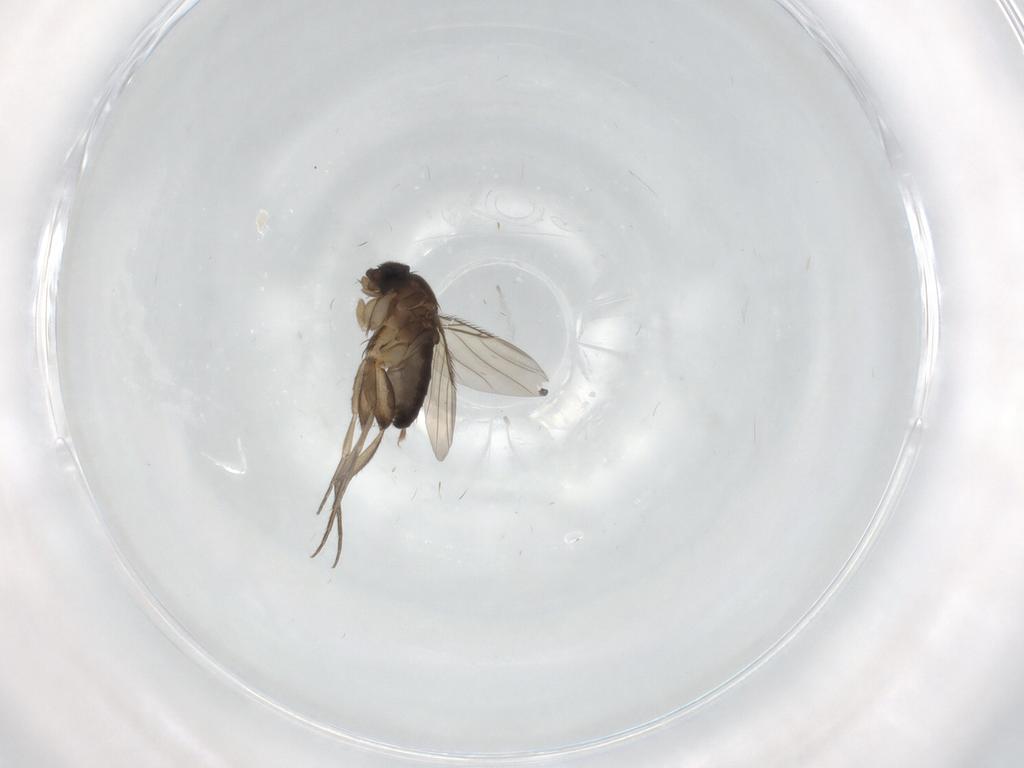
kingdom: Animalia
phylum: Arthropoda
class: Insecta
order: Diptera
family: Phoridae
